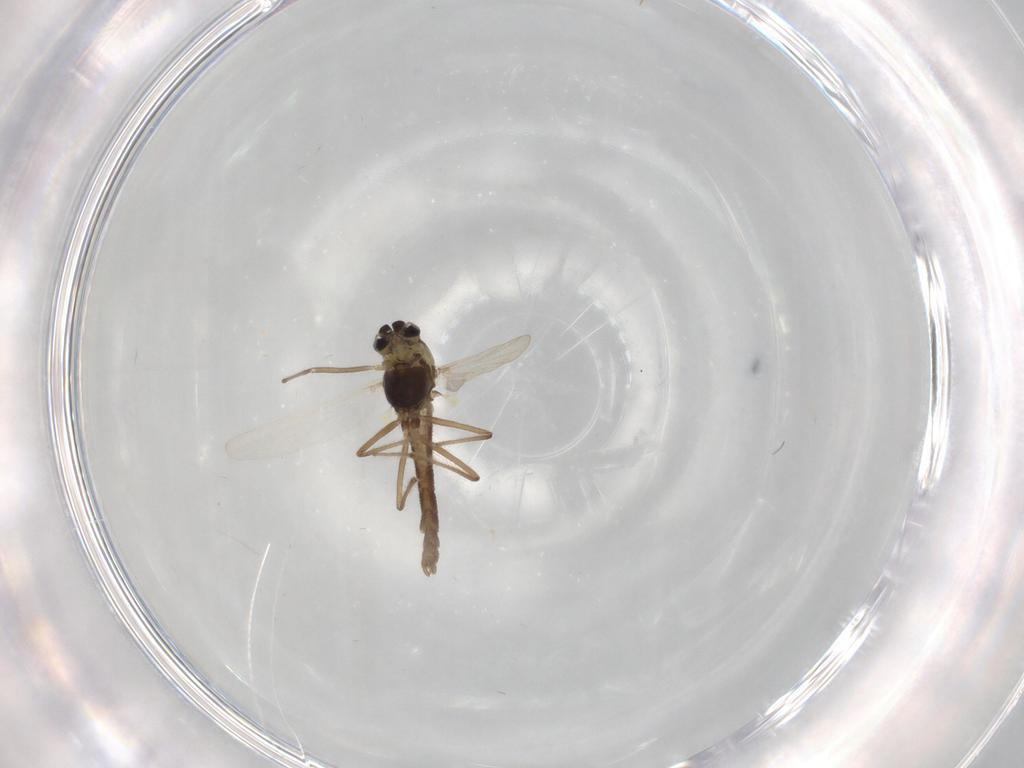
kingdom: Animalia
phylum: Arthropoda
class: Insecta
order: Diptera
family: Chironomidae
